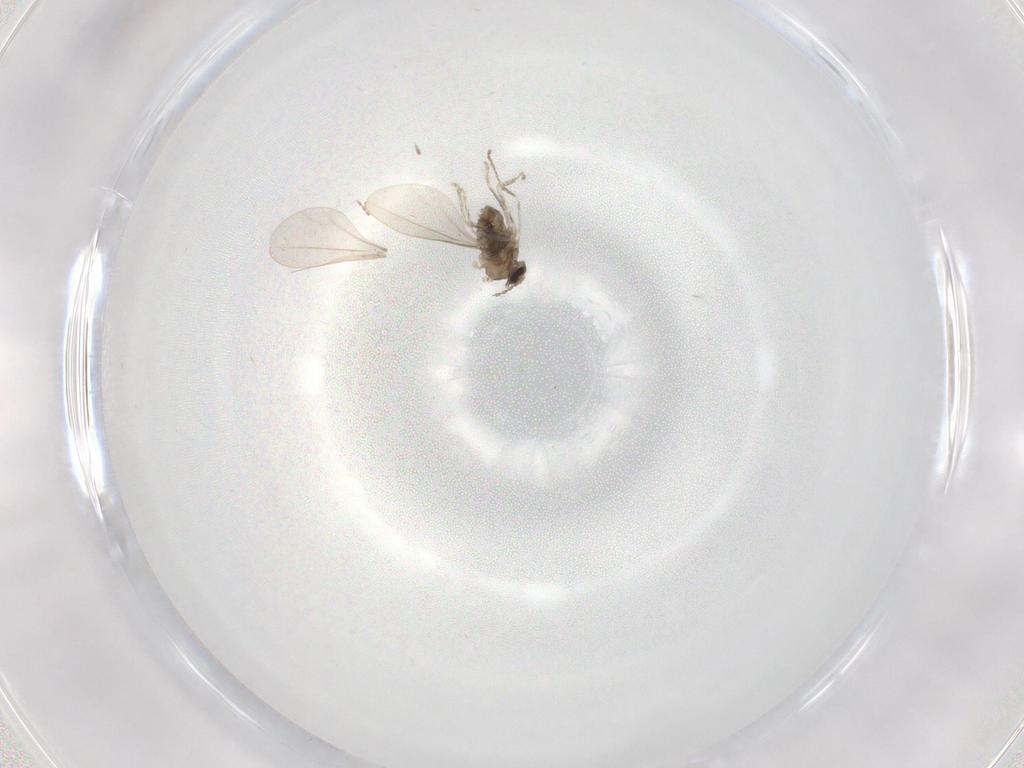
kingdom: Animalia
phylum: Arthropoda
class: Insecta
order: Diptera
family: Cecidomyiidae
